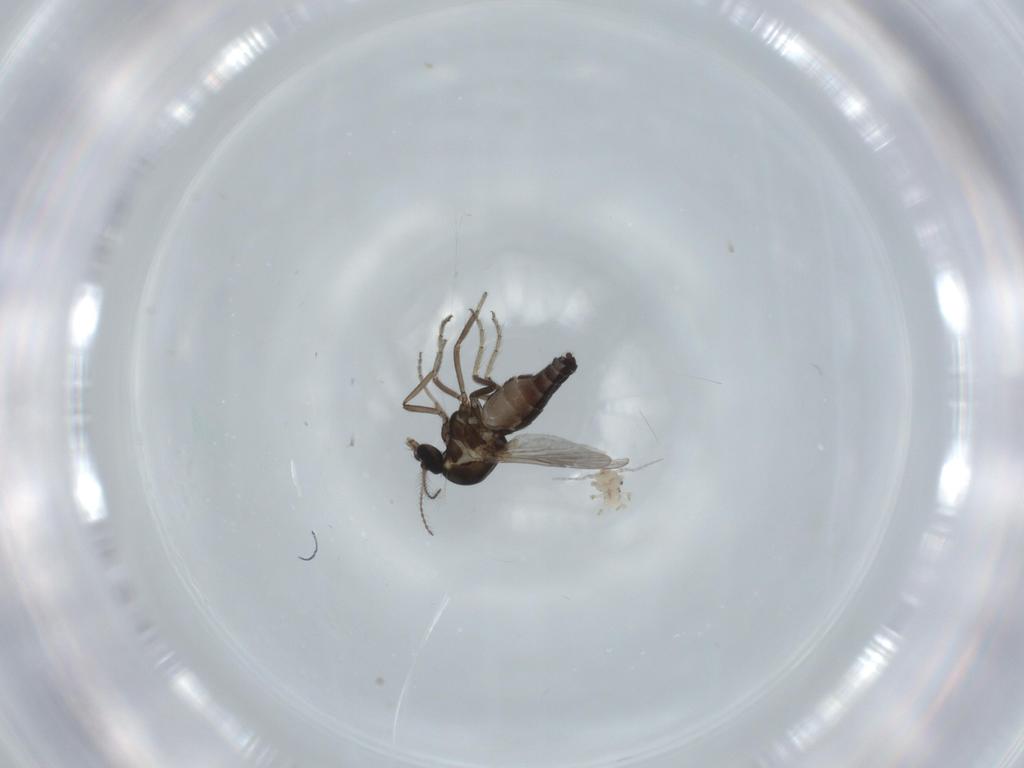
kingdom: Animalia
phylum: Arthropoda
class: Insecta
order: Diptera
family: Ceratopogonidae
